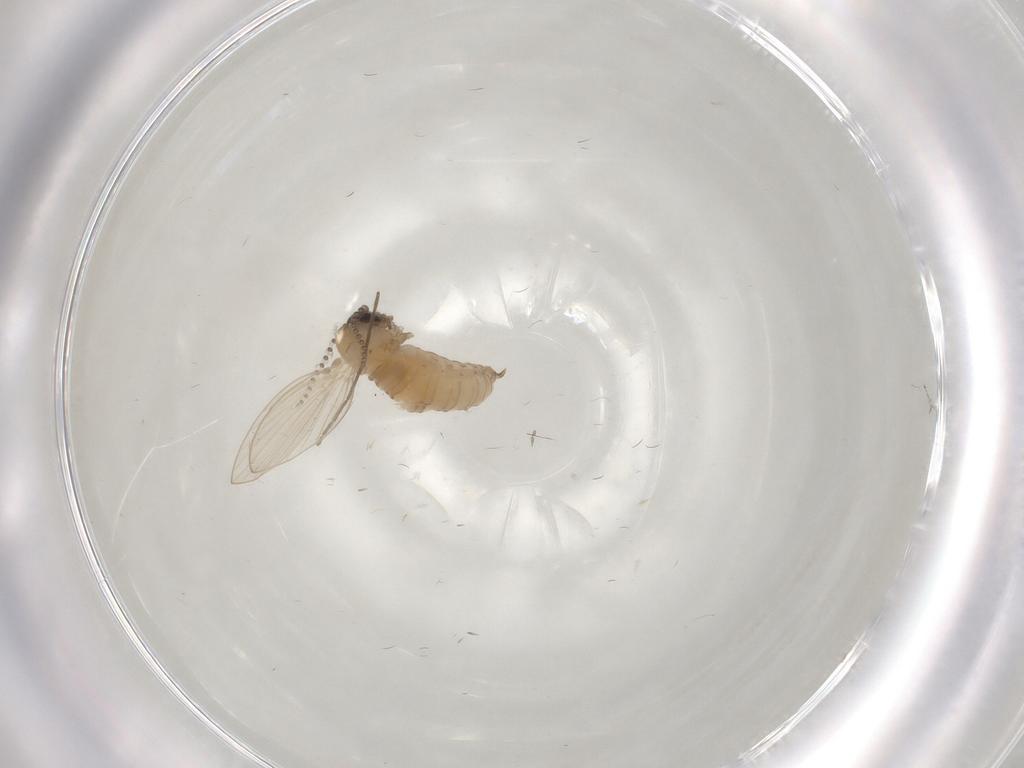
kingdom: Animalia
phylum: Arthropoda
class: Insecta
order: Diptera
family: Psychodidae
